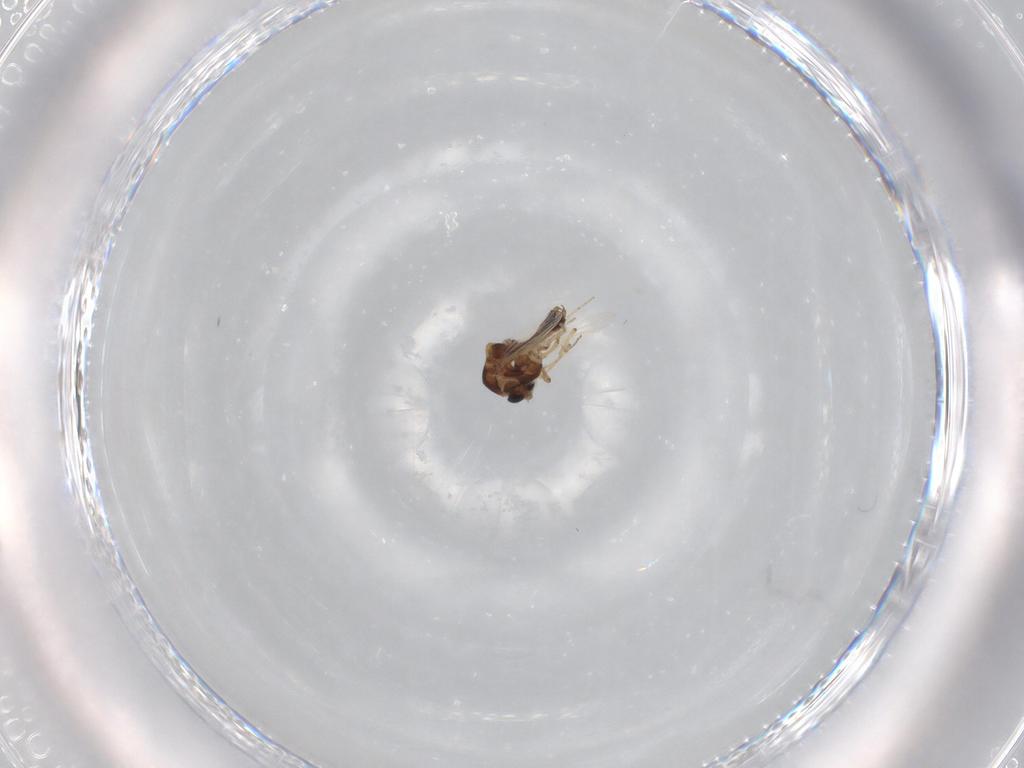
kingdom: Animalia
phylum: Arthropoda
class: Insecta
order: Diptera
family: Ceratopogonidae
